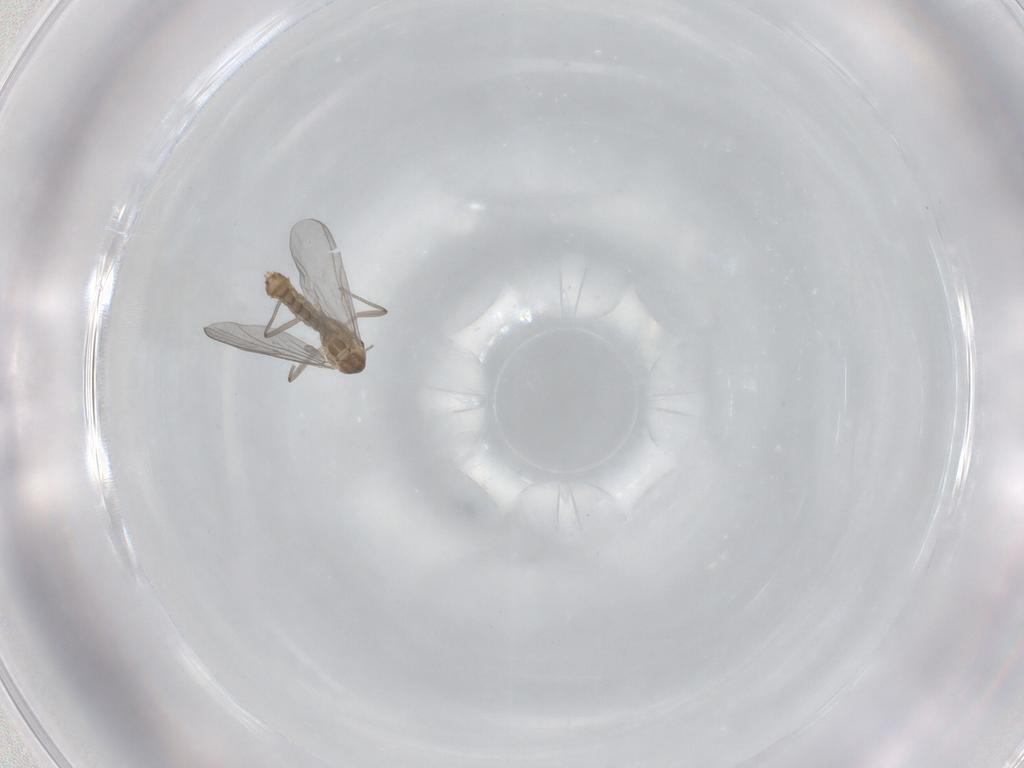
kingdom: Animalia
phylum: Arthropoda
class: Insecta
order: Diptera
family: Chironomidae
